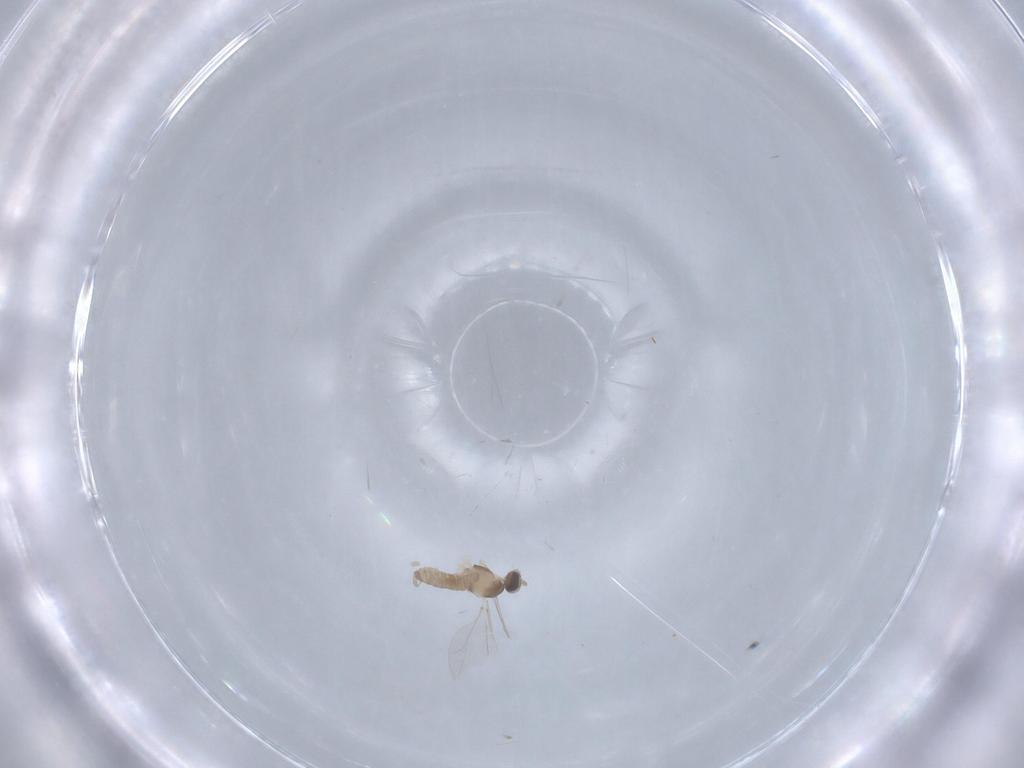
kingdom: Animalia
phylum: Arthropoda
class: Insecta
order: Diptera
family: Cecidomyiidae
